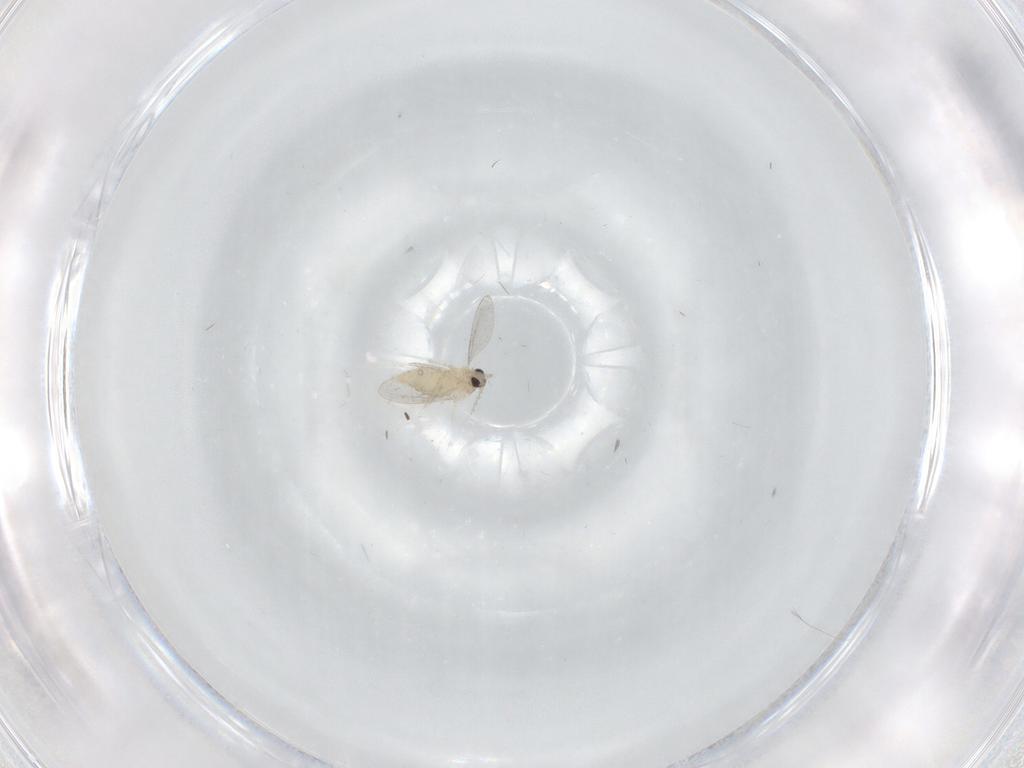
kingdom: Animalia
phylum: Arthropoda
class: Insecta
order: Diptera
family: Cecidomyiidae
